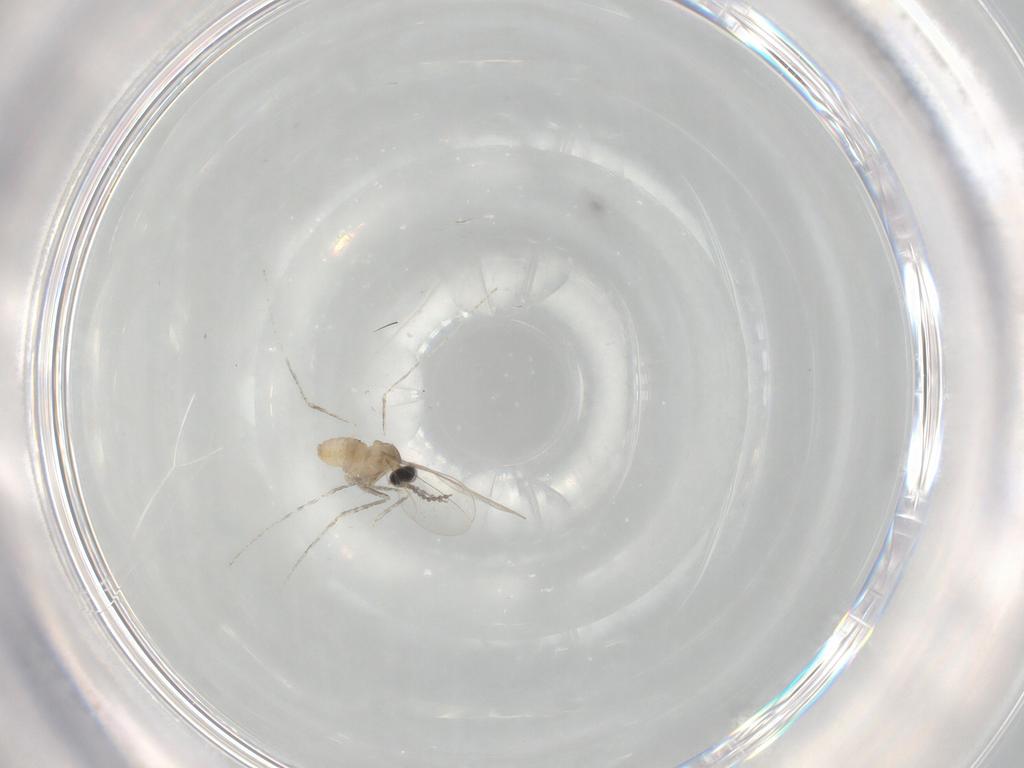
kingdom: Animalia
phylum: Arthropoda
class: Insecta
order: Diptera
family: Cecidomyiidae
